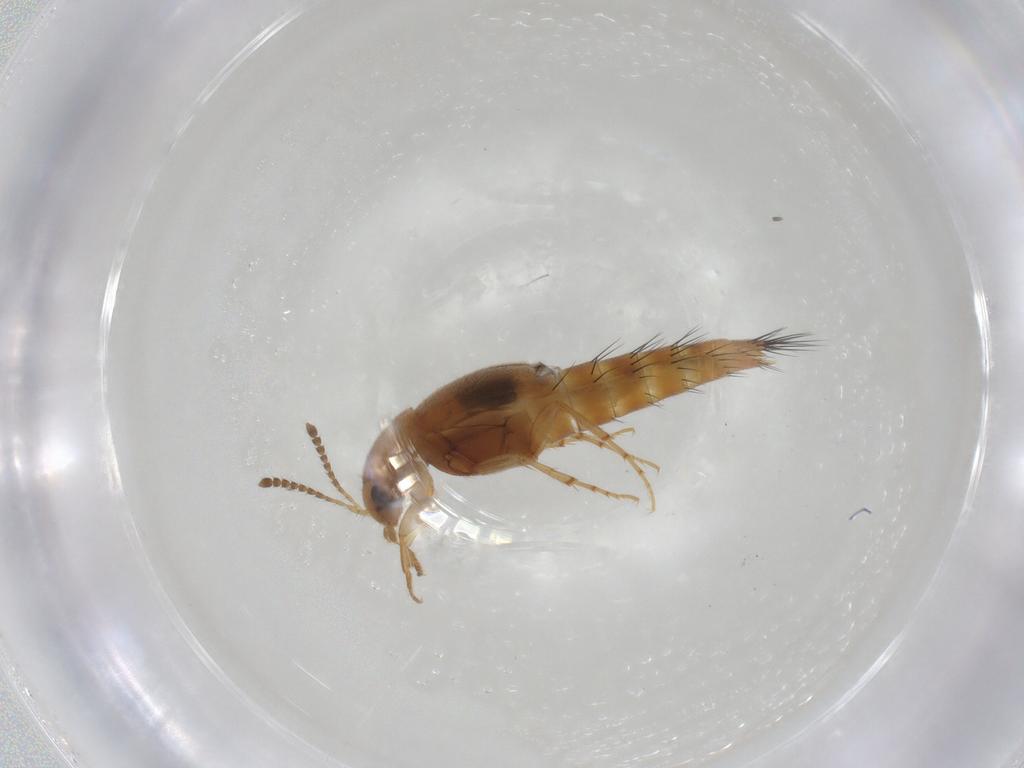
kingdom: Animalia
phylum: Arthropoda
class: Insecta
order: Coleoptera
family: Staphylinidae
